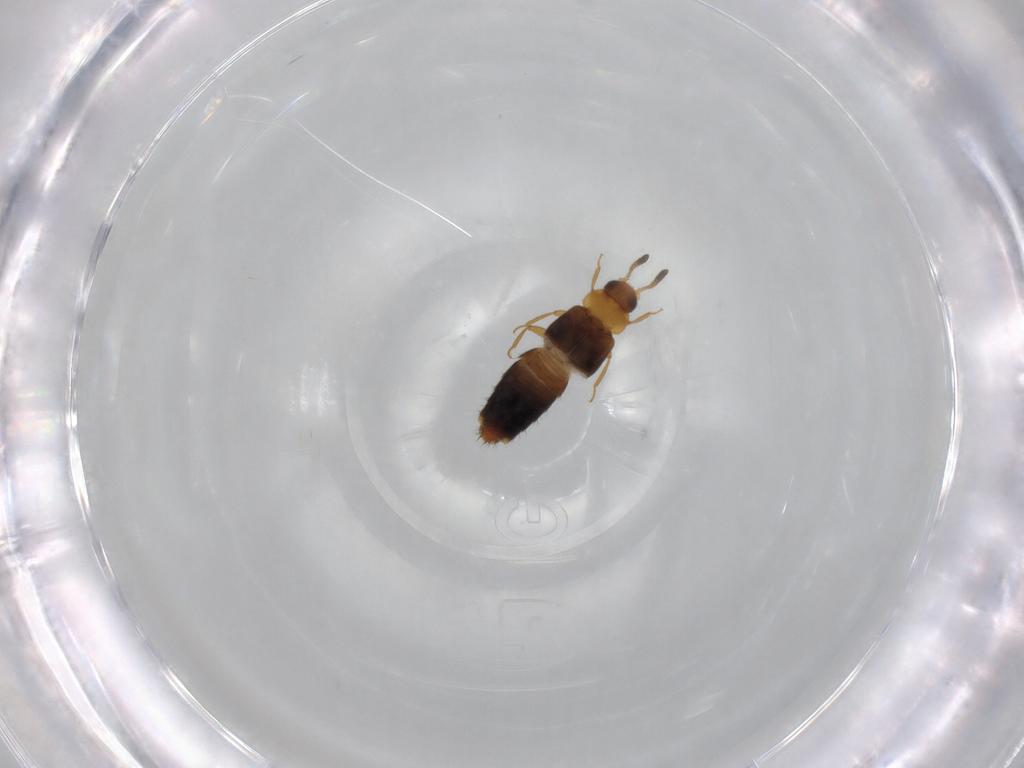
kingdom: Animalia
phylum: Arthropoda
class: Insecta
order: Coleoptera
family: Staphylinidae
